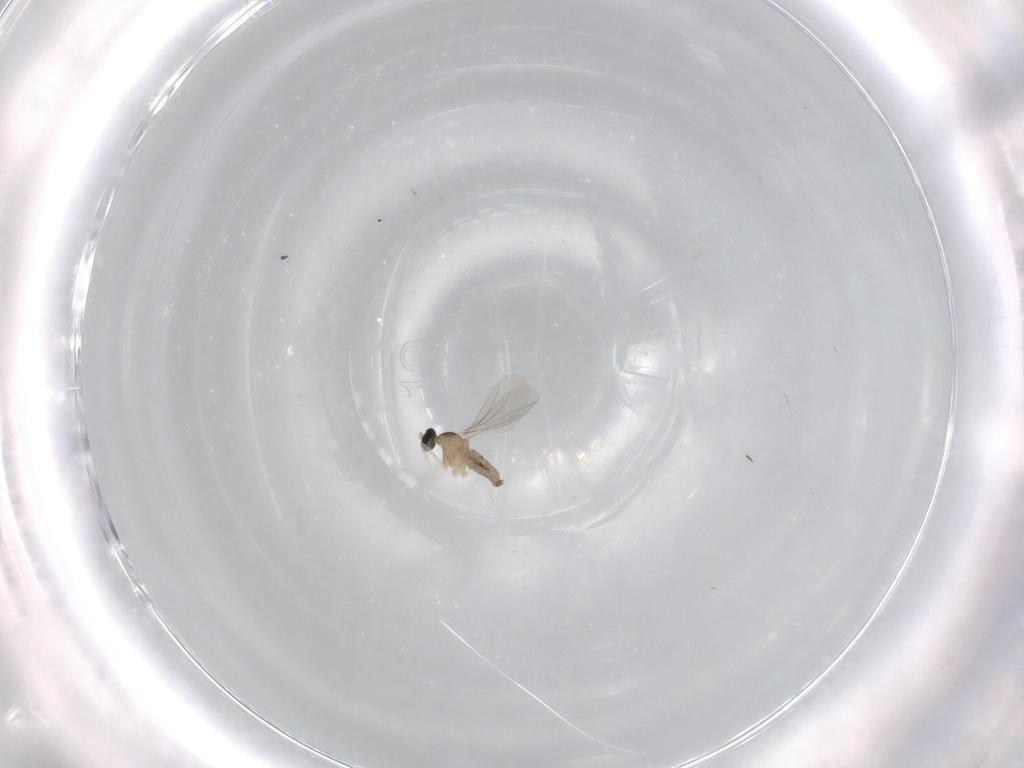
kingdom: Animalia
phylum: Arthropoda
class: Insecta
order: Diptera
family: Cecidomyiidae
